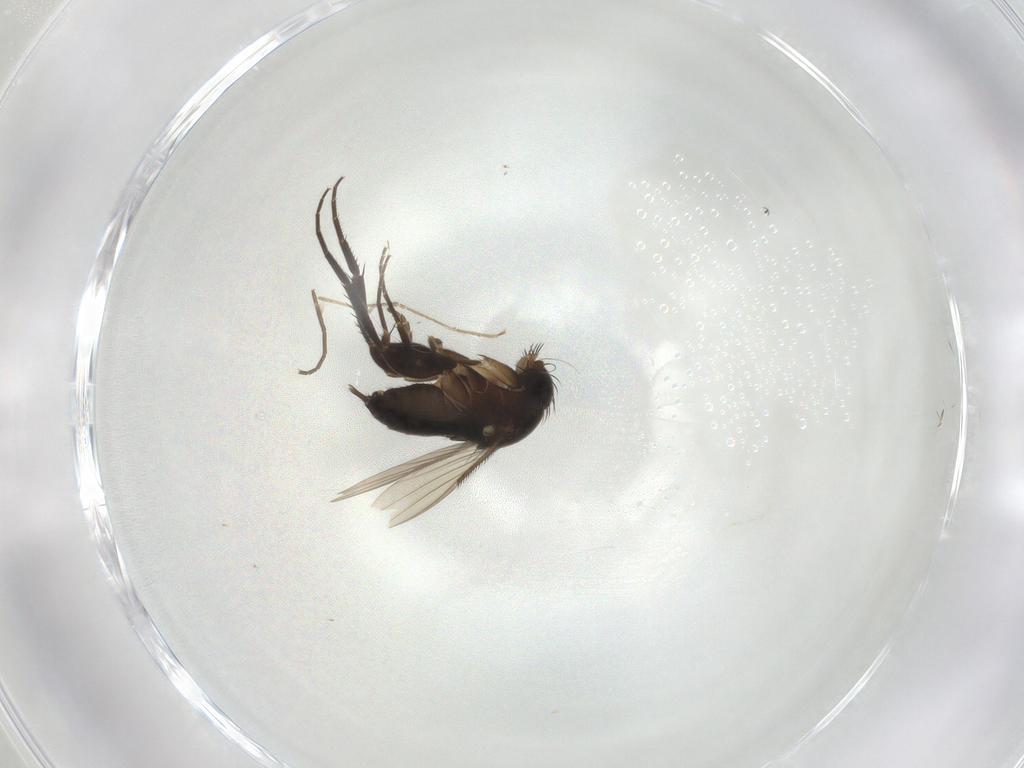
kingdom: Animalia
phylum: Arthropoda
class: Insecta
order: Diptera
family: Phoridae
